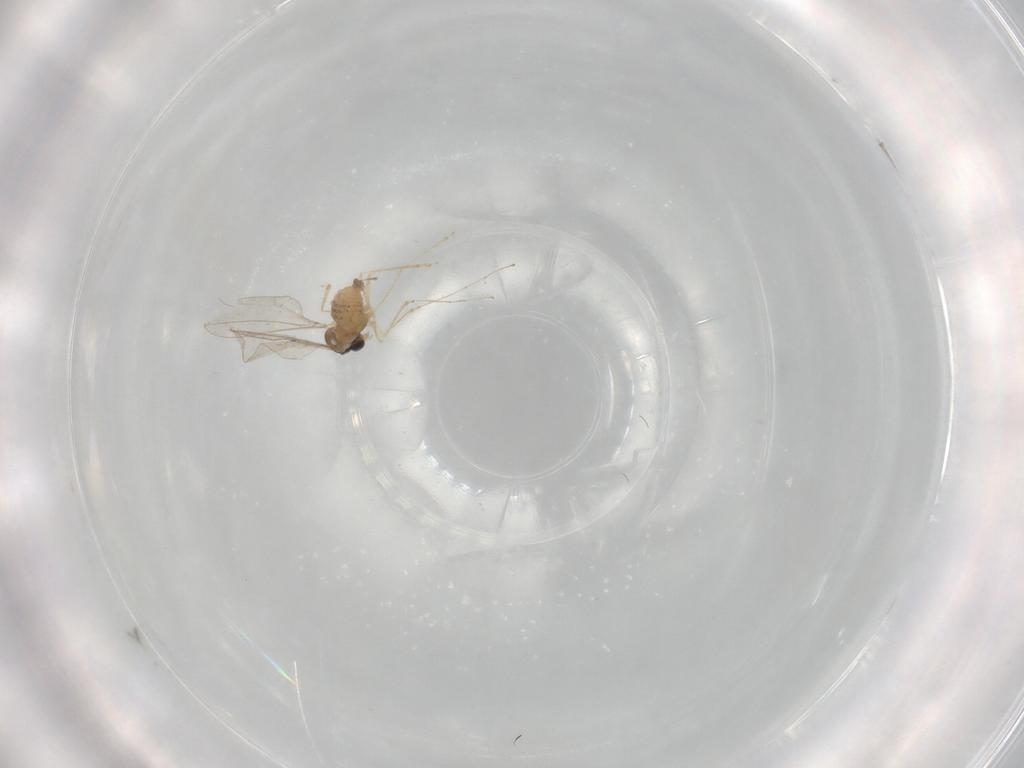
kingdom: Animalia
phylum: Arthropoda
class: Insecta
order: Diptera
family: Cecidomyiidae
